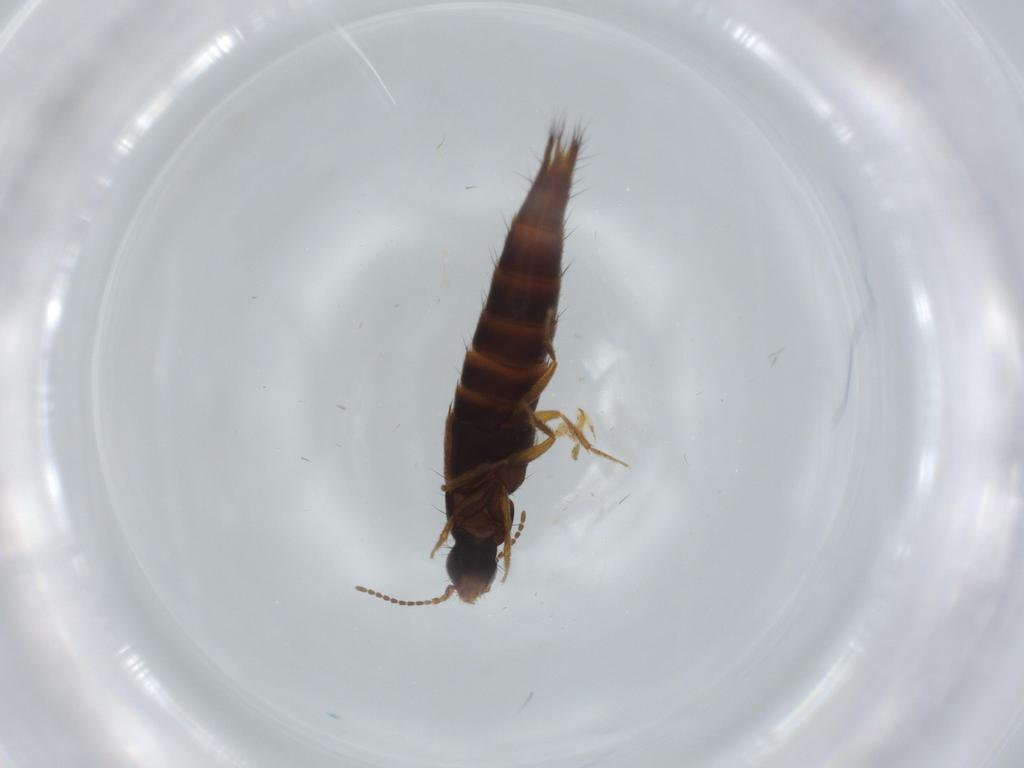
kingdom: Animalia
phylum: Arthropoda
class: Insecta
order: Coleoptera
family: Staphylinidae
